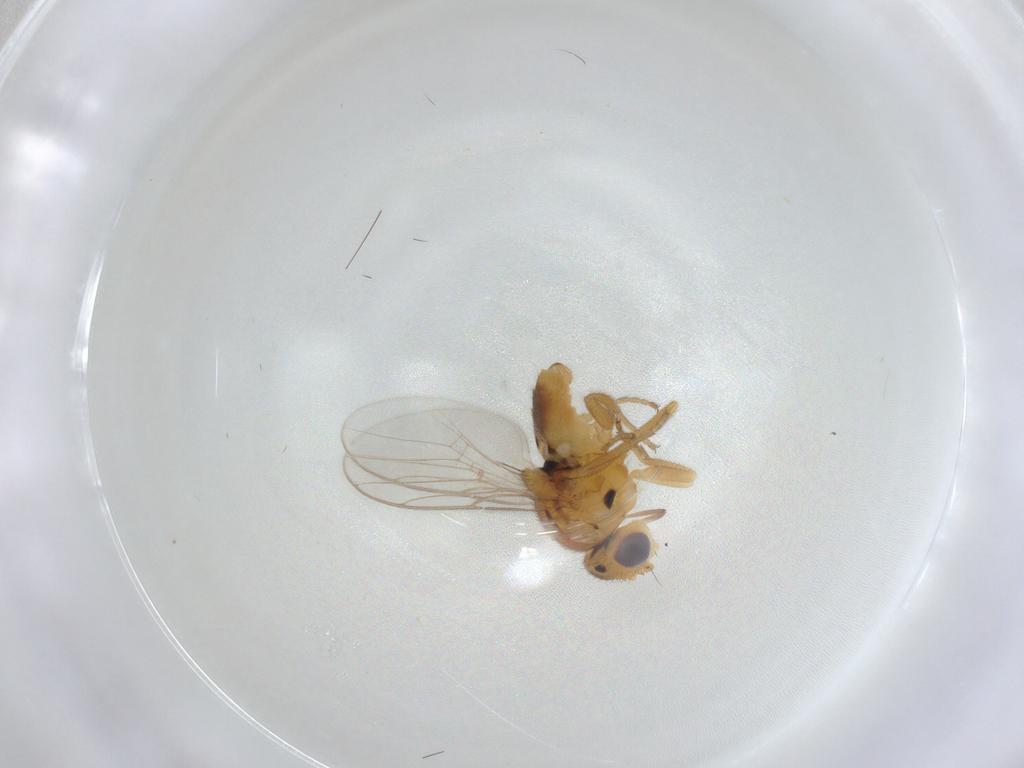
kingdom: Animalia
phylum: Arthropoda
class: Insecta
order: Diptera
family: Chloropidae
